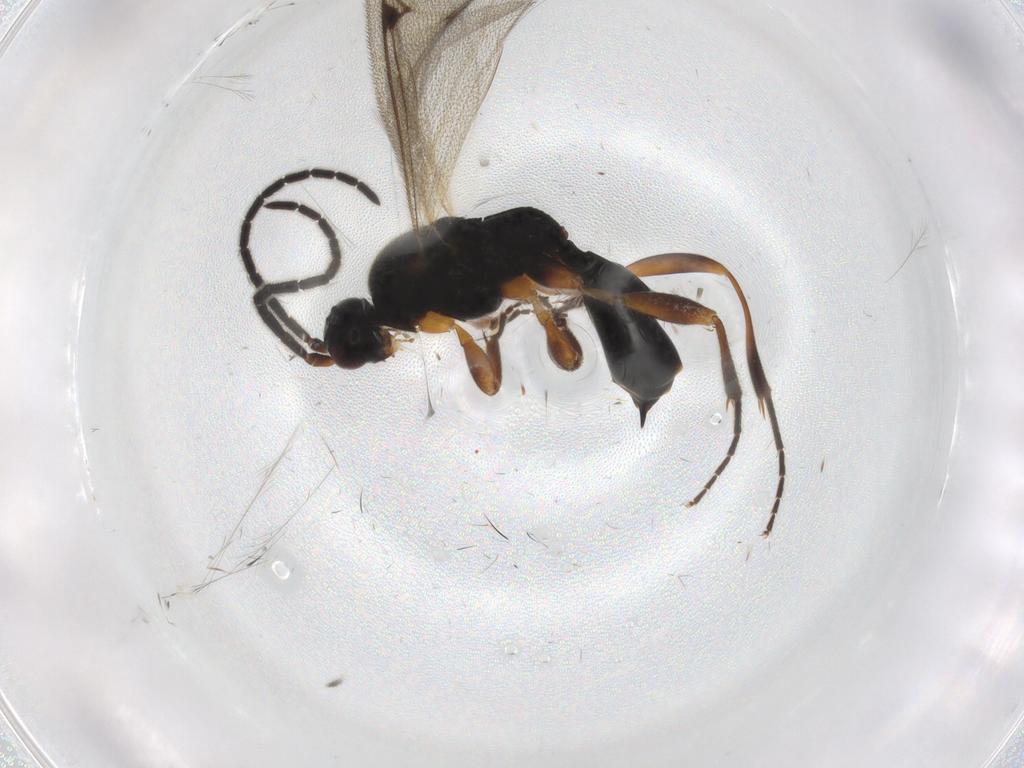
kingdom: Animalia
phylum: Arthropoda
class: Insecta
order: Hymenoptera
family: Proctotrupidae
